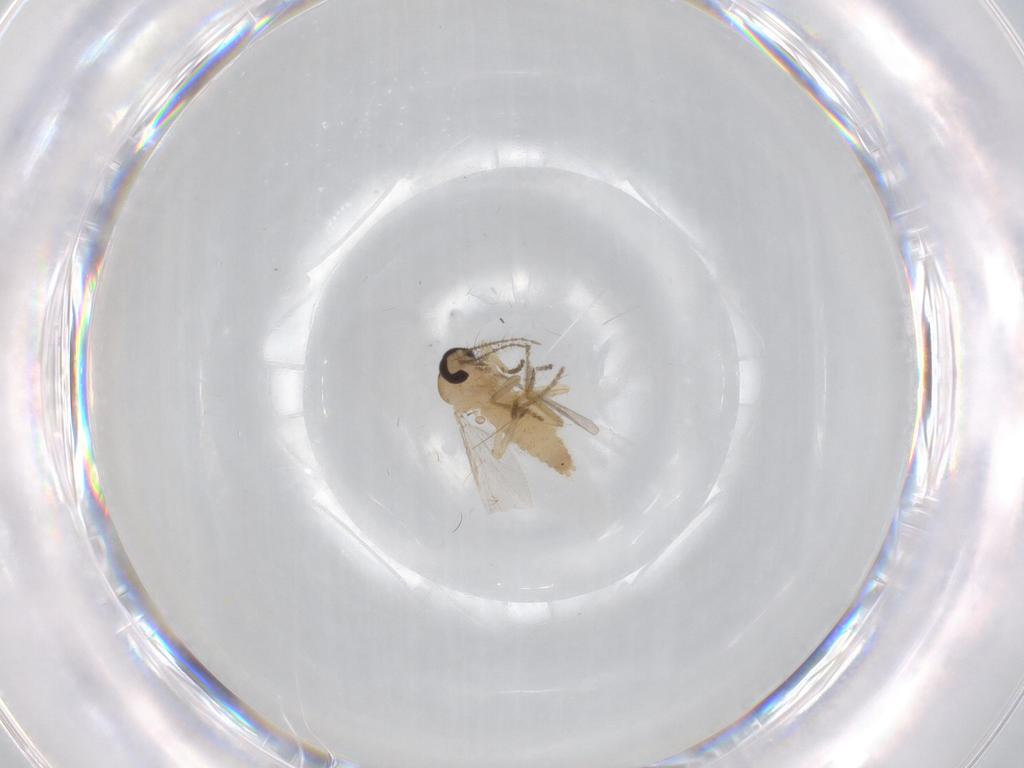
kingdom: Animalia
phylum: Arthropoda
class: Insecta
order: Diptera
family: Ceratopogonidae
